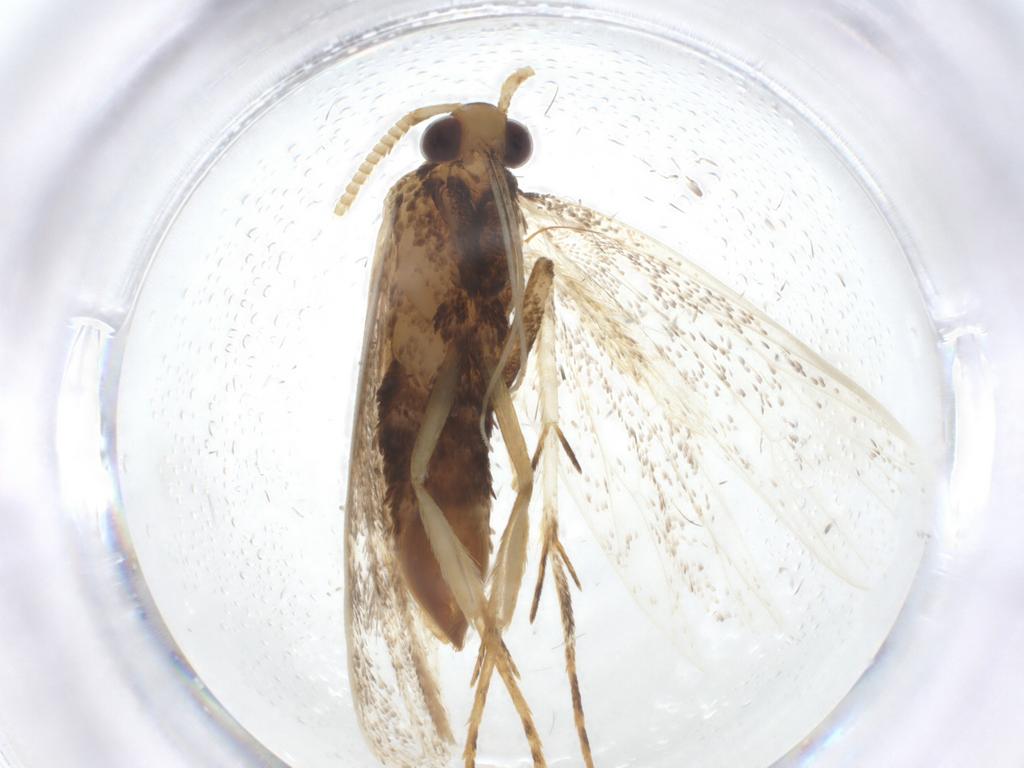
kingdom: Animalia
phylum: Arthropoda
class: Insecta
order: Lepidoptera
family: Lecithoceridae
